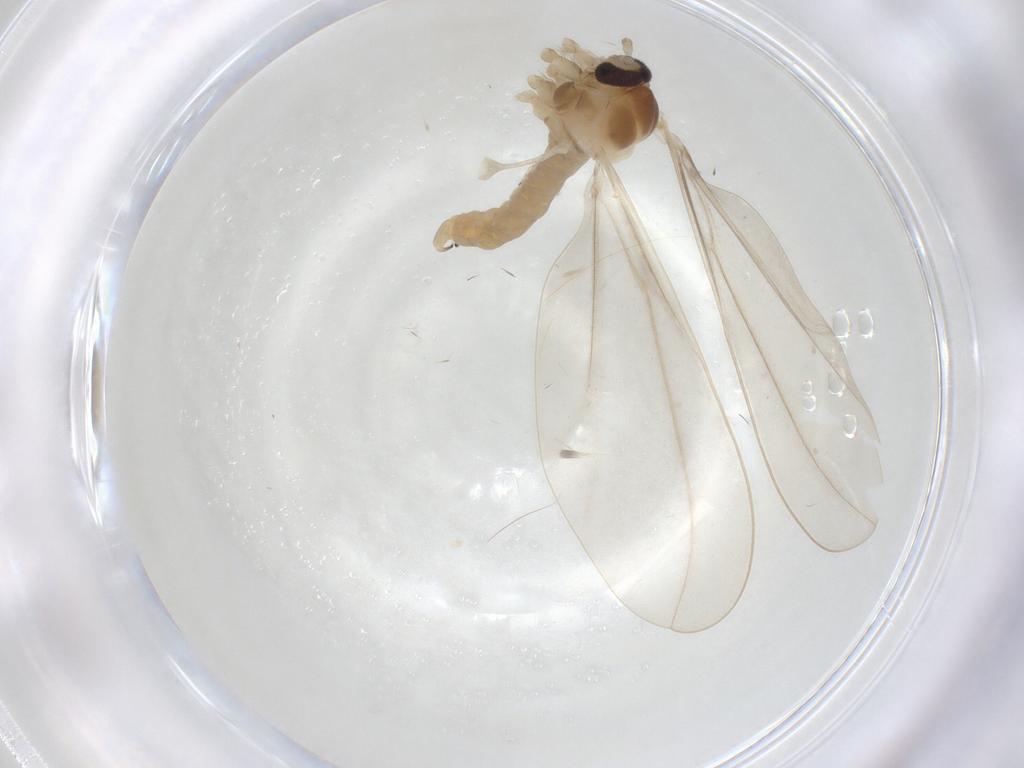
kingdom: Animalia
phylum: Arthropoda
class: Insecta
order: Diptera
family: Cecidomyiidae
